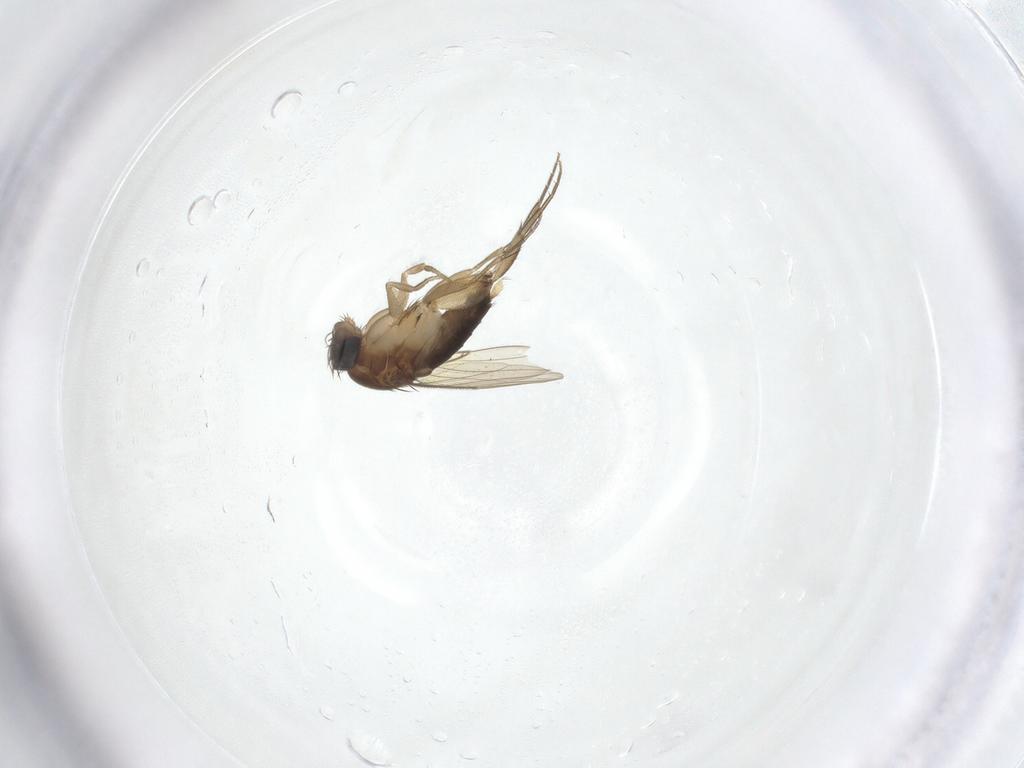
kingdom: Animalia
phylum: Arthropoda
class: Insecta
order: Diptera
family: Phoridae
